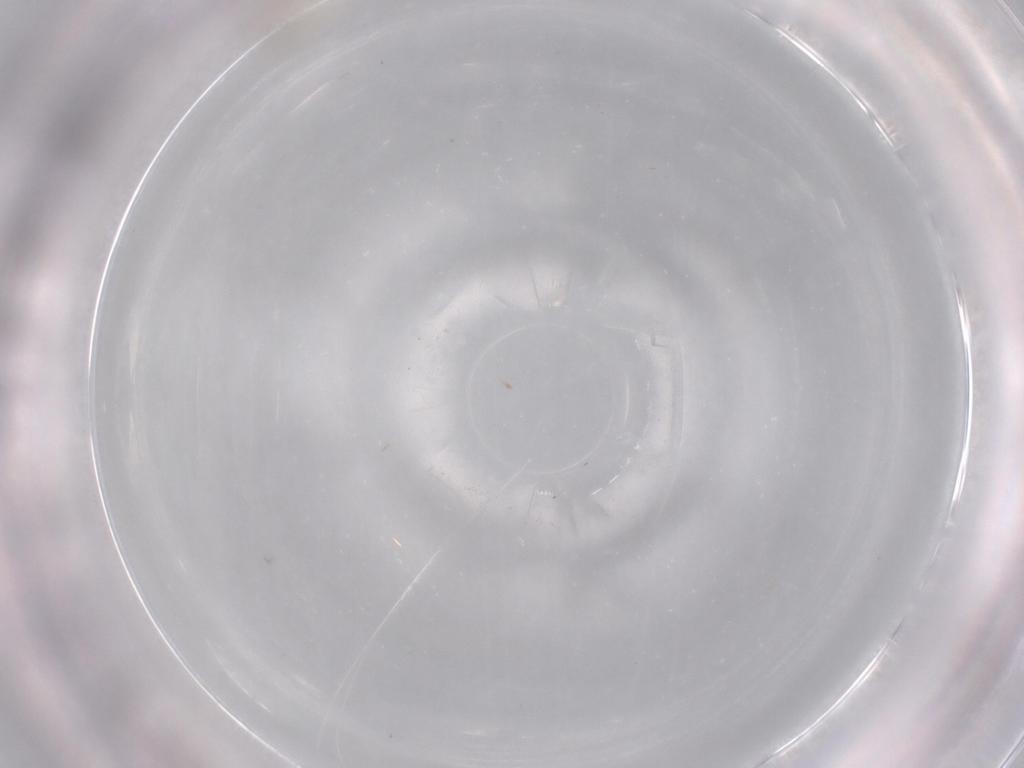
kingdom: Animalia
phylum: Arthropoda
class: Insecta
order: Diptera
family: Cecidomyiidae
